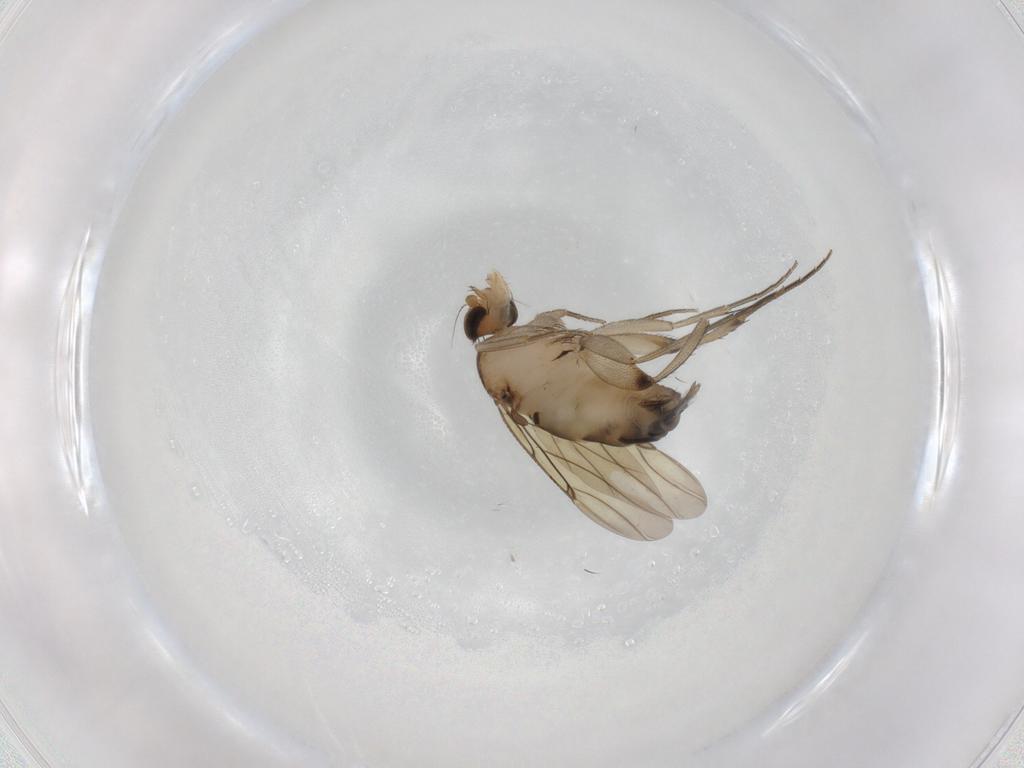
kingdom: Animalia
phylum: Arthropoda
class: Insecta
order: Diptera
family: Phoridae
